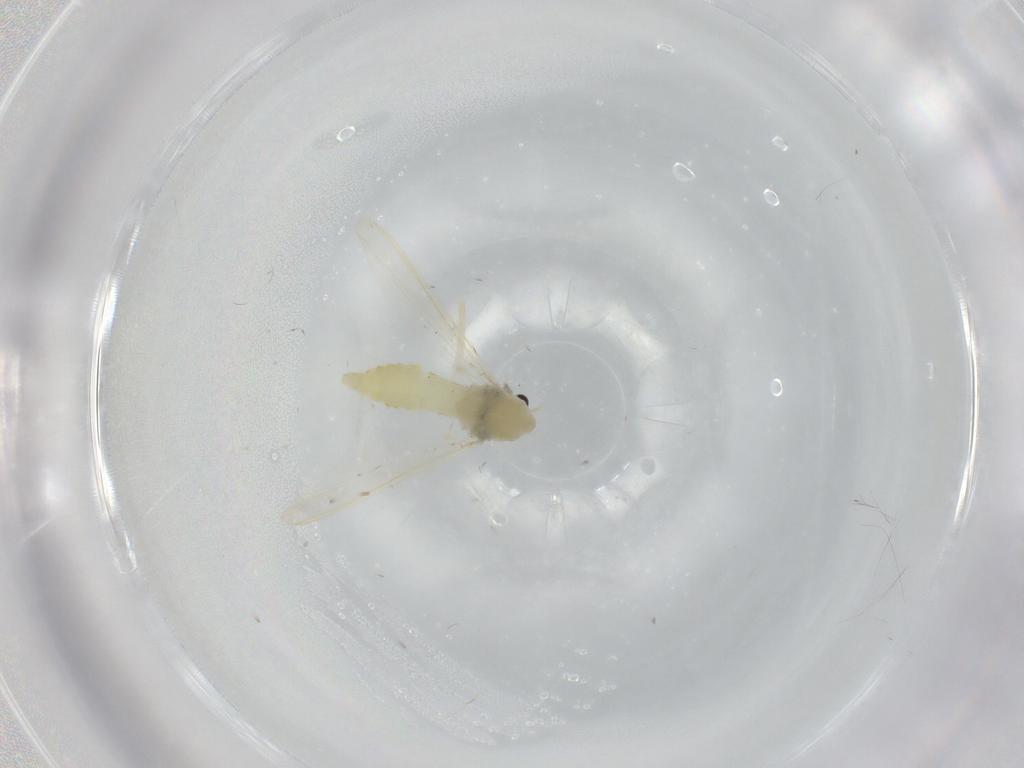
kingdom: Animalia
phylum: Arthropoda
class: Insecta
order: Diptera
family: Chironomidae
